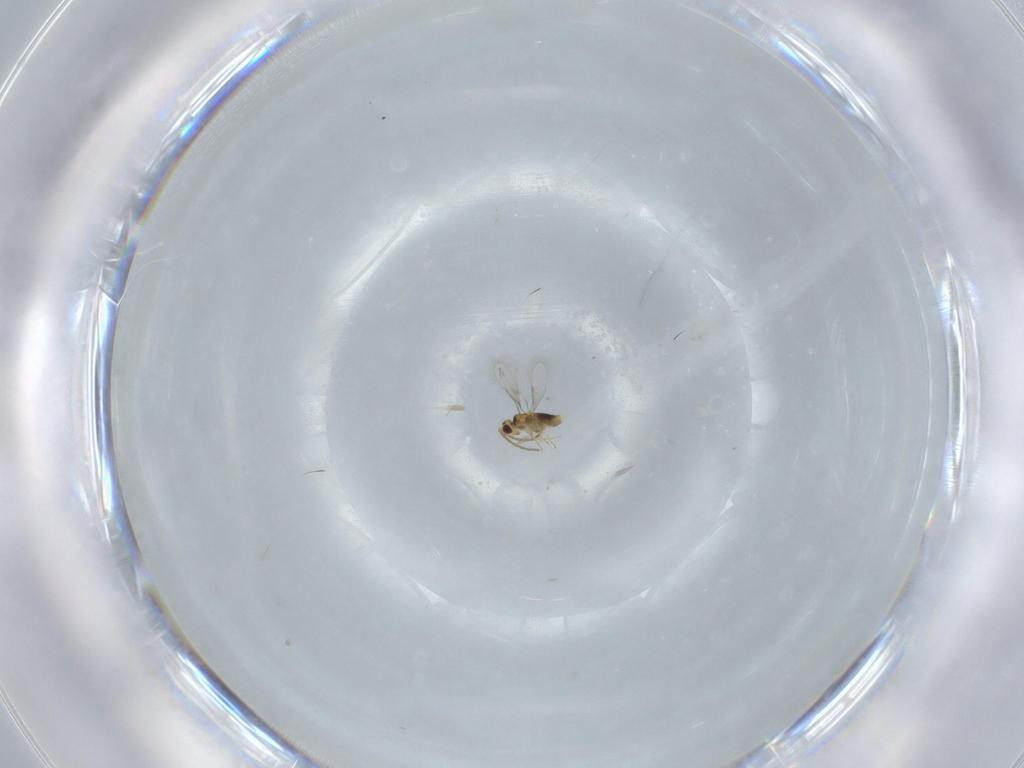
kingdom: Animalia
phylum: Arthropoda
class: Insecta
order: Hymenoptera
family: Aphelinidae
